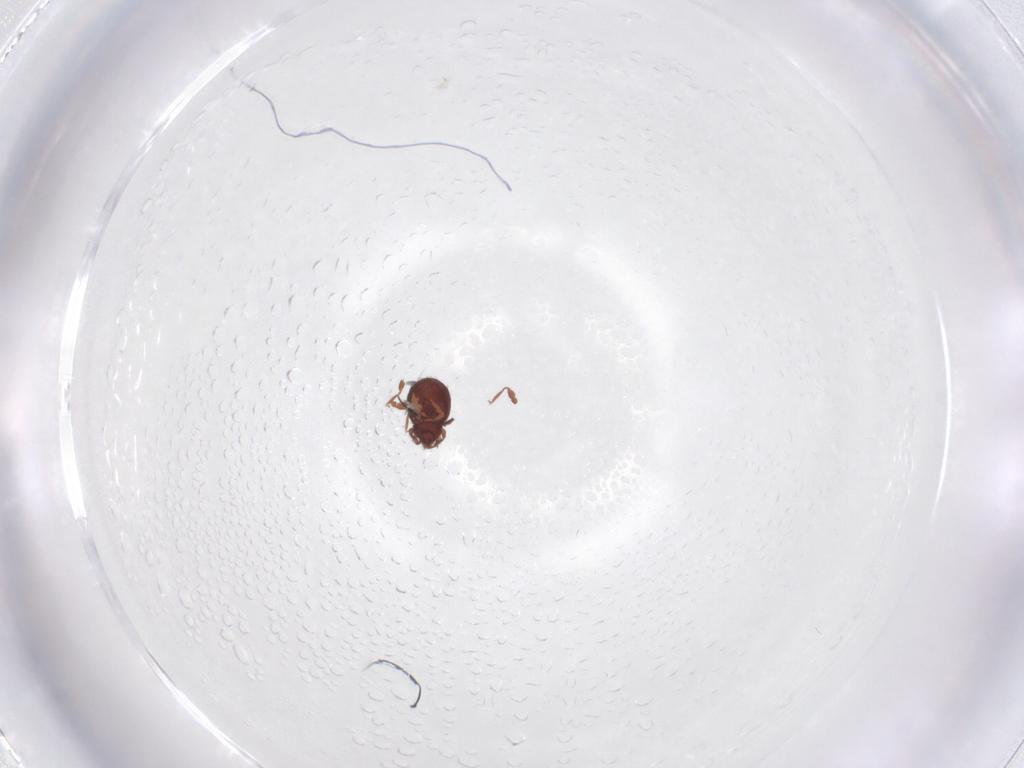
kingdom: Animalia
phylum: Arthropoda
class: Arachnida
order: Sarcoptiformes
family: Scheloribatidae
